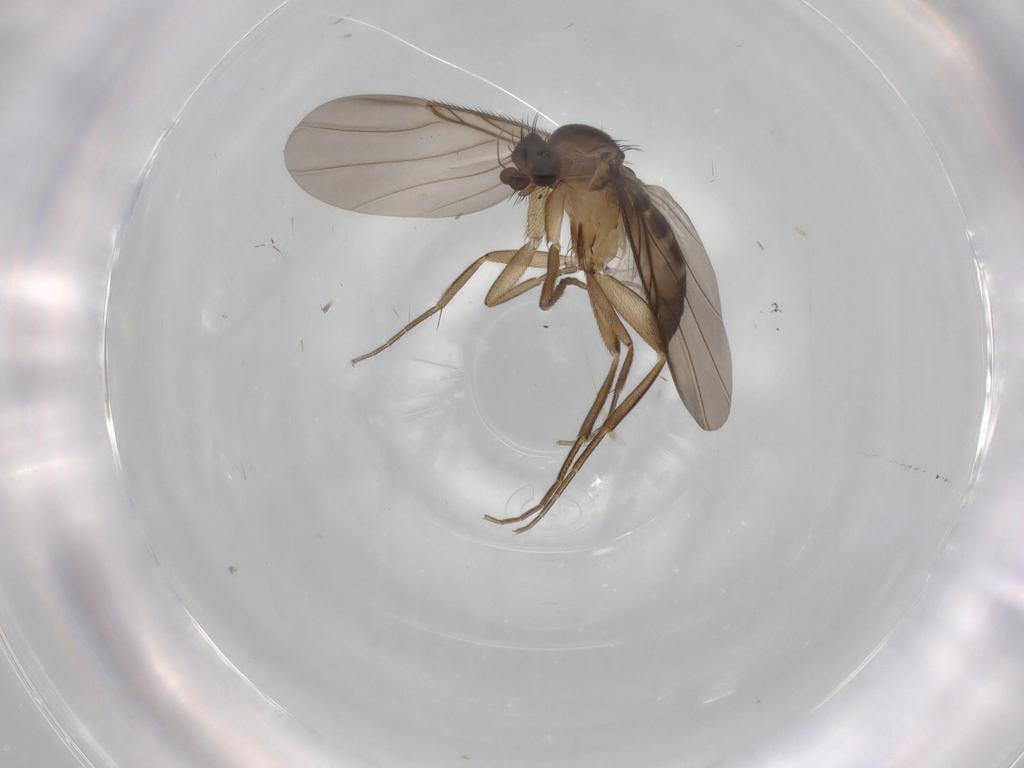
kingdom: Animalia
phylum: Arthropoda
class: Insecta
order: Diptera
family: Phoridae
